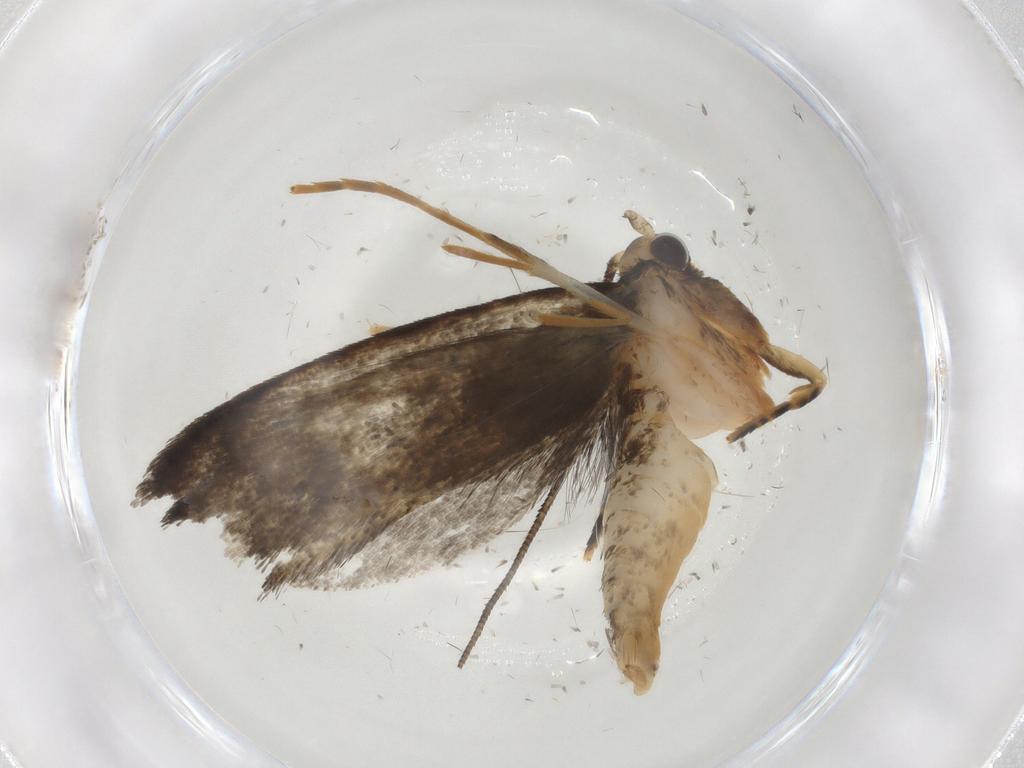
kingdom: Animalia
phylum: Arthropoda
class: Insecta
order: Lepidoptera
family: Tineidae
